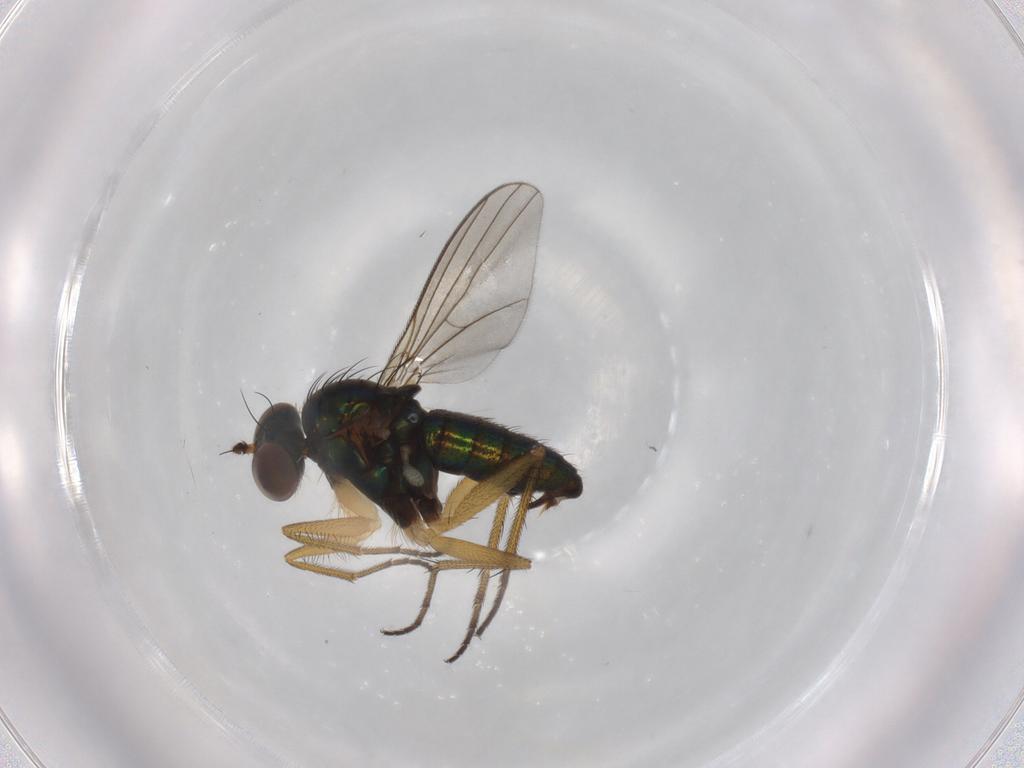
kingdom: Animalia
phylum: Arthropoda
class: Insecta
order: Diptera
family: Dolichopodidae
